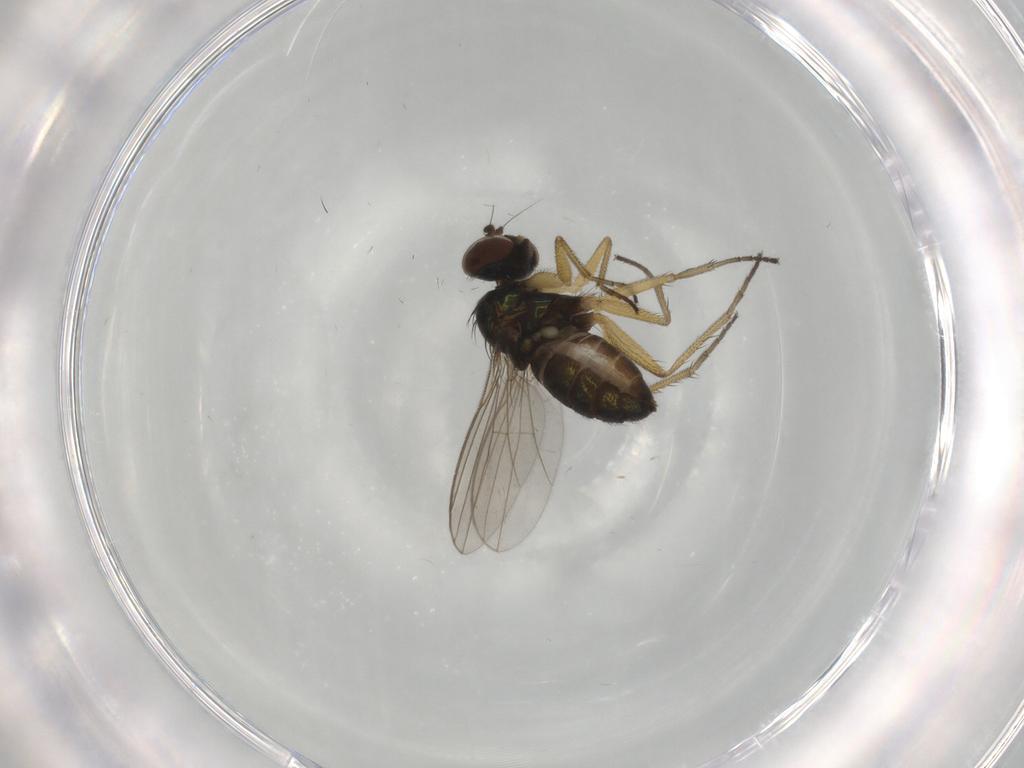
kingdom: Animalia
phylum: Arthropoda
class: Insecta
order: Diptera
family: Dolichopodidae
